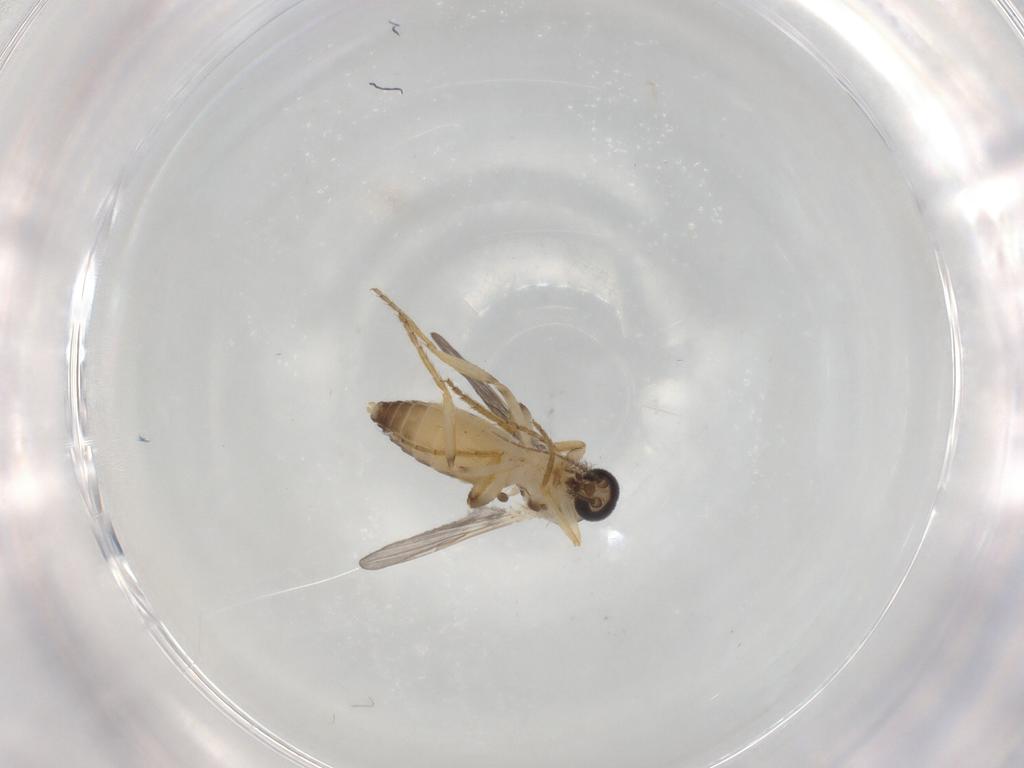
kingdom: Animalia
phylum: Arthropoda
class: Insecta
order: Diptera
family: Ceratopogonidae
